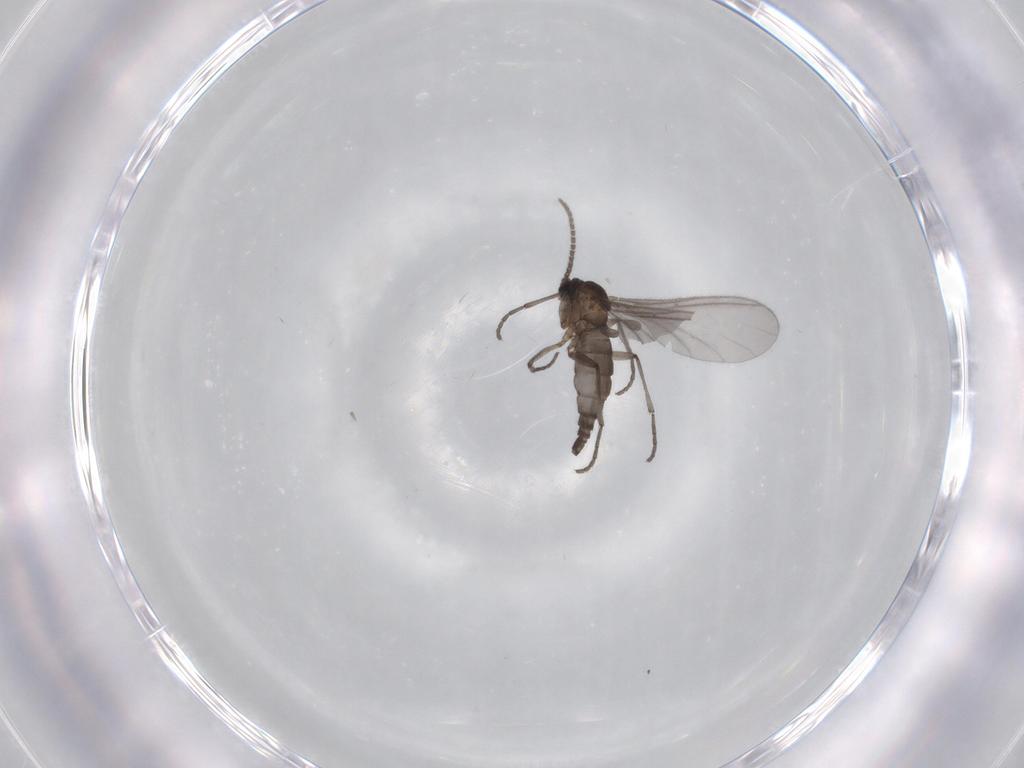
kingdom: Animalia
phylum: Arthropoda
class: Insecta
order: Diptera
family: Sciaridae
